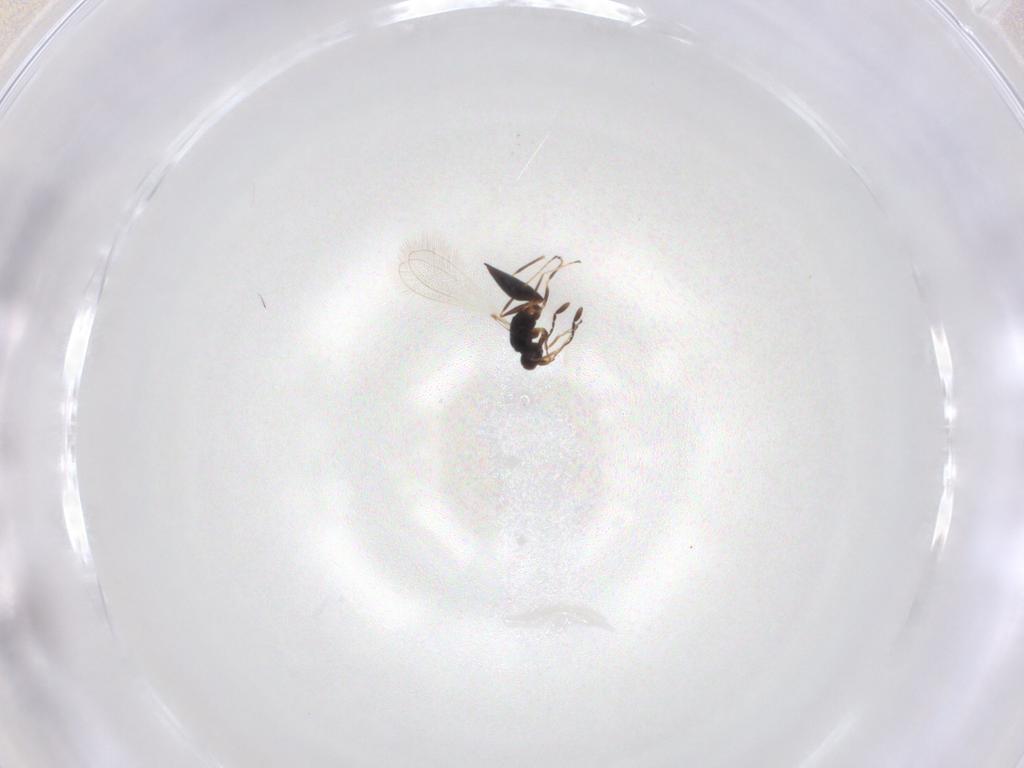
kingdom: Animalia
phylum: Arthropoda
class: Insecta
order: Hymenoptera
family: Mymaridae
